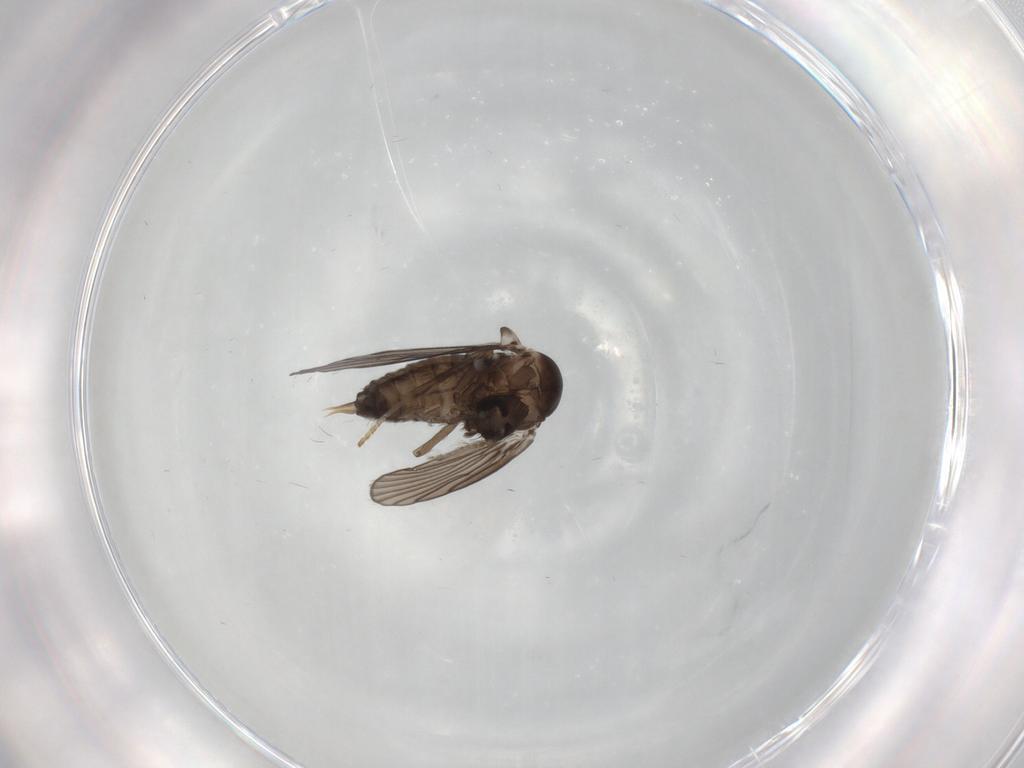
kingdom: Animalia
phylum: Arthropoda
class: Insecta
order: Diptera
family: Psychodidae
